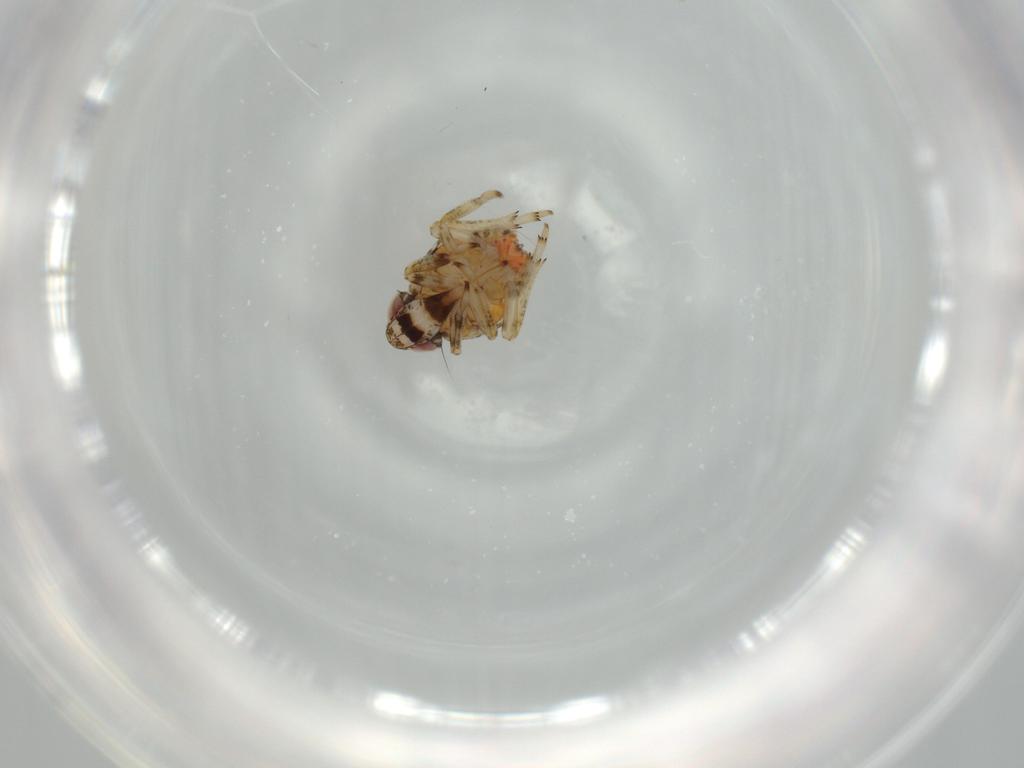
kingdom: Animalia
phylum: Arthropoda
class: Insecta
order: Hemiptera
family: Issidae
